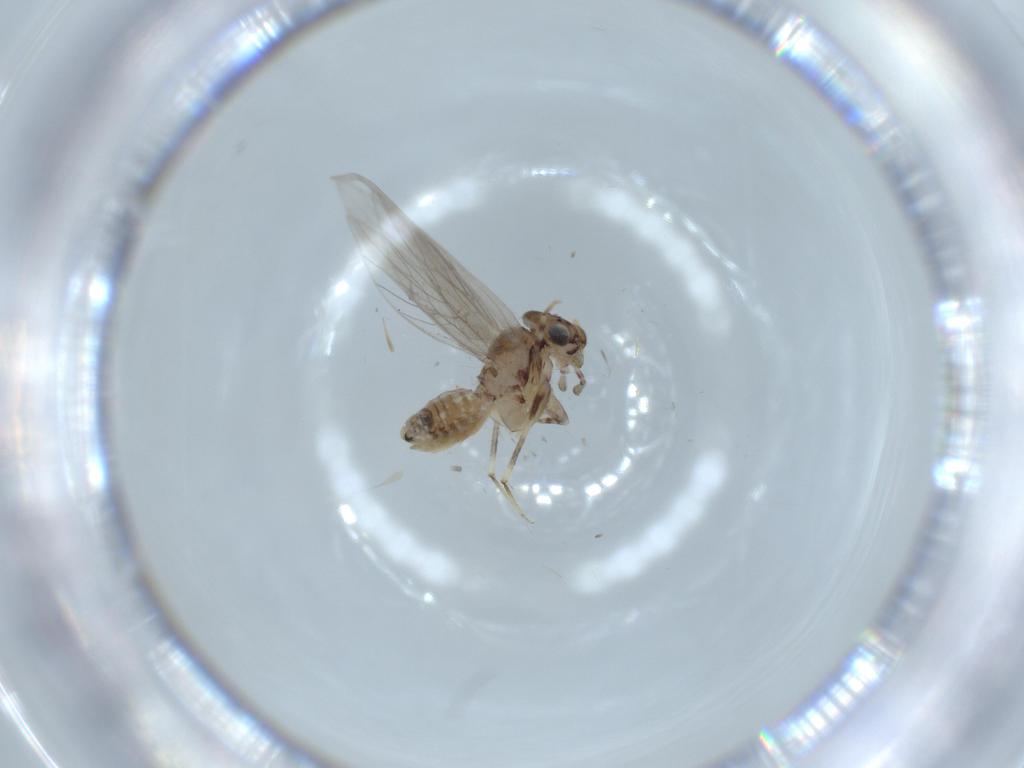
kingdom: Animalia
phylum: Arthropoda
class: Insecta
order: Psocodea
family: Lepidopsocidae
